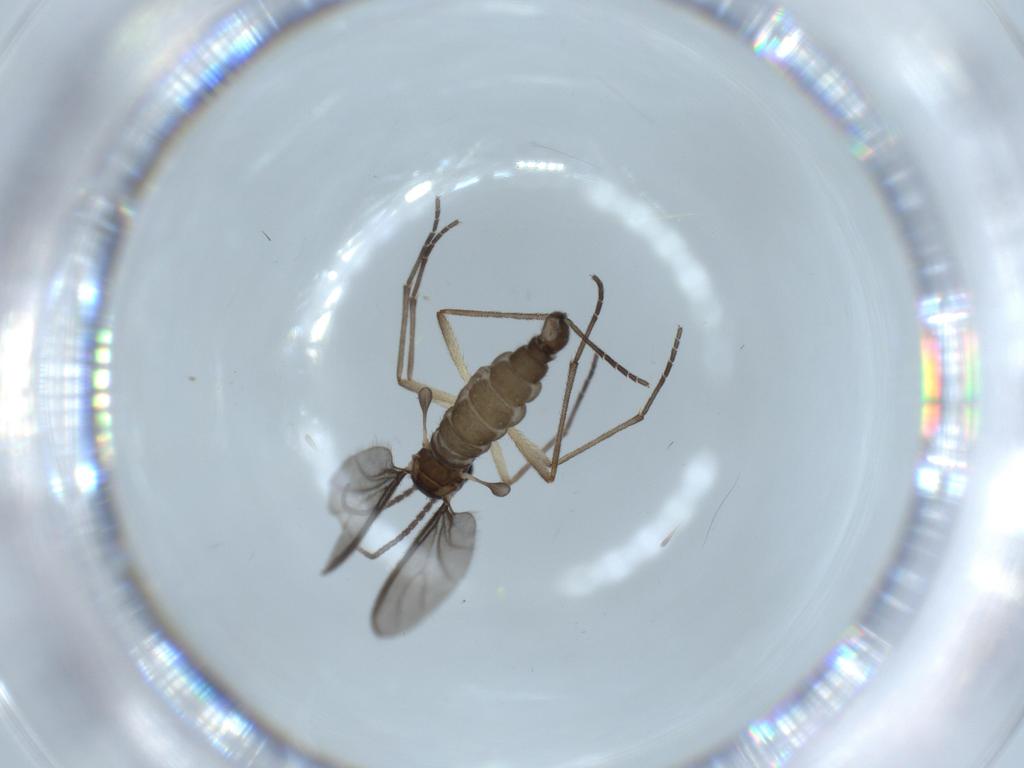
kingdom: Animalia
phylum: Arthropoda
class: Insecta
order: Diptera
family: Sciaridae
